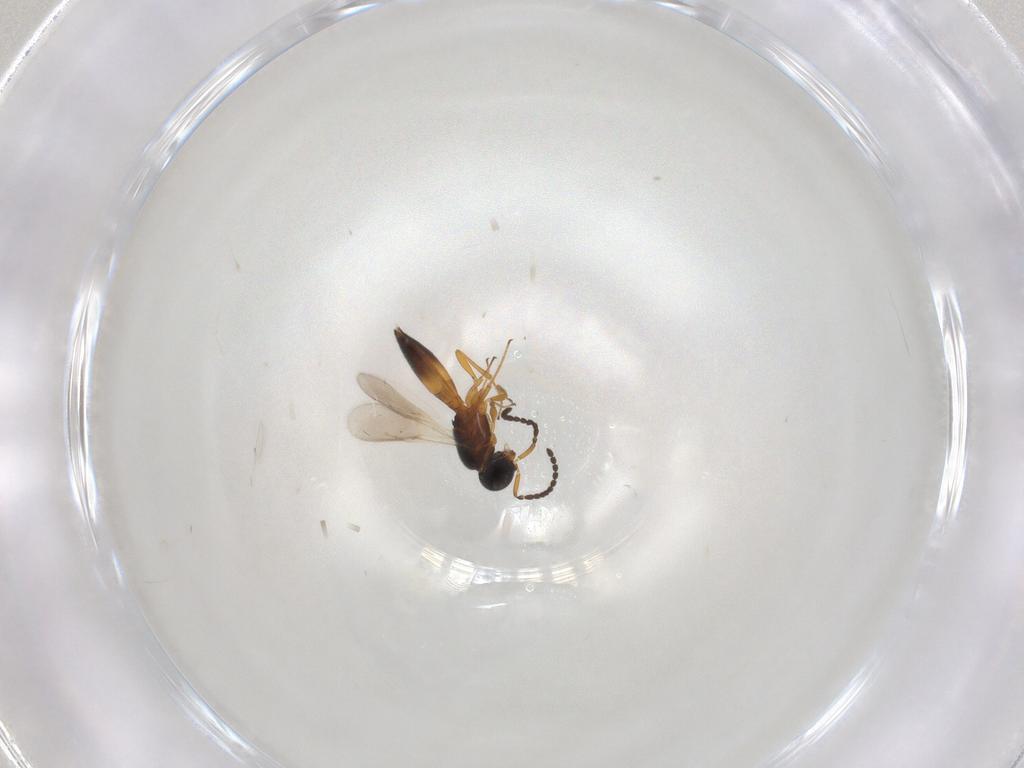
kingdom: Animalia
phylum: Arthropoda
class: Insecta
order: Hymenoptera
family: Scelionidae
